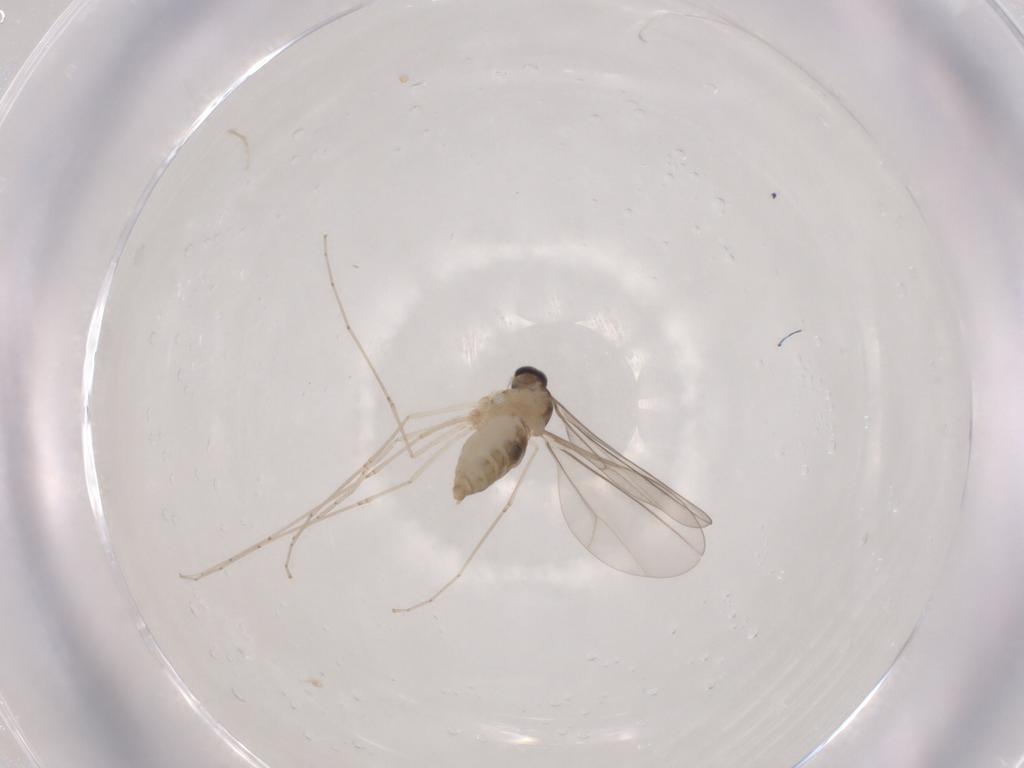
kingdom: Animalia
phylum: Arthropoda
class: Insecta
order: Diptera
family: Cecidomyiidae
